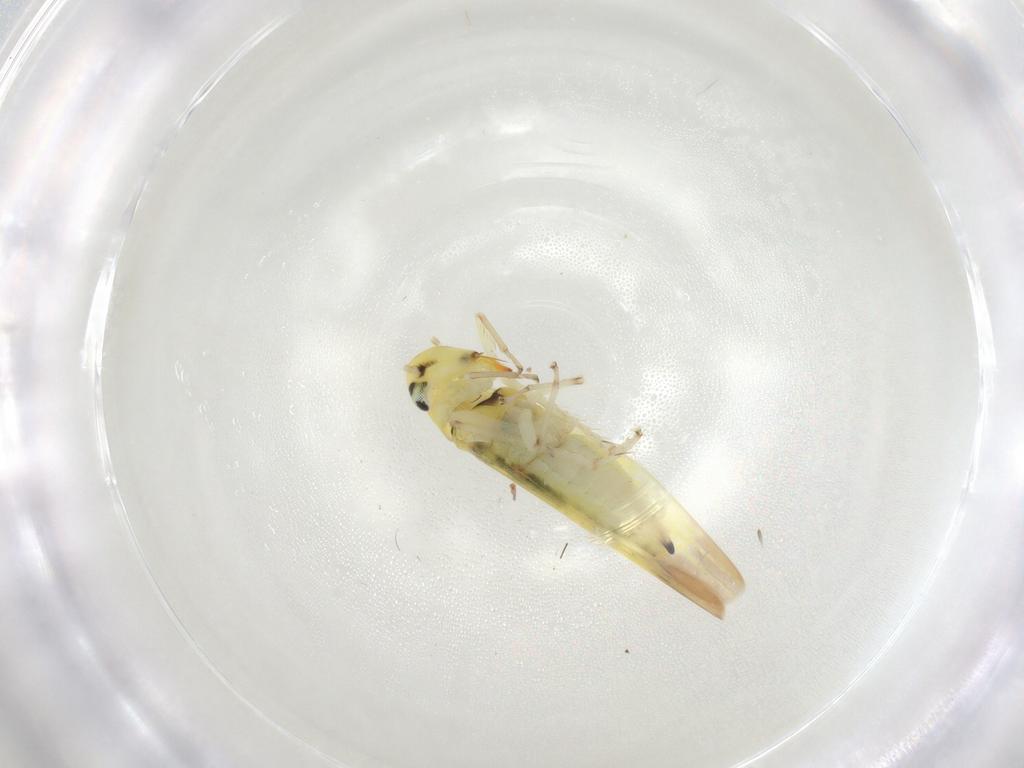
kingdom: Animalia
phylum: Arthropoda
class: Insecta
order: Hemiptera
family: Cicadellidae
